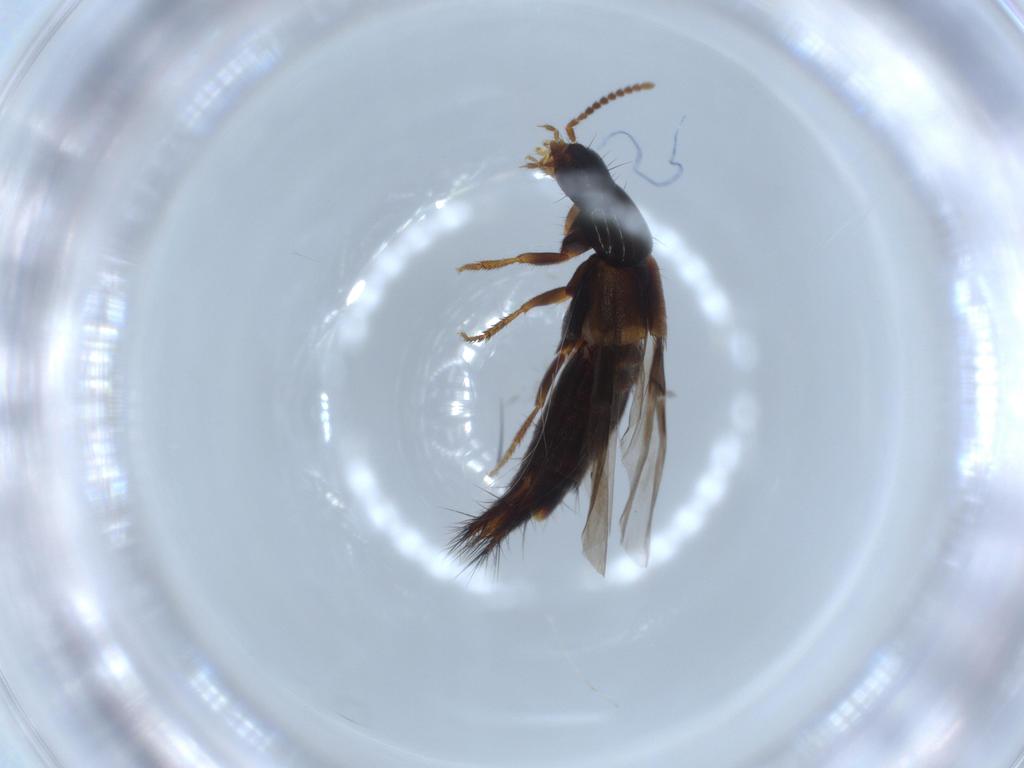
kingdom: Animalia
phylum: Arthropoda
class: Insecta
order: Coleoptera
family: Staphylinidae
